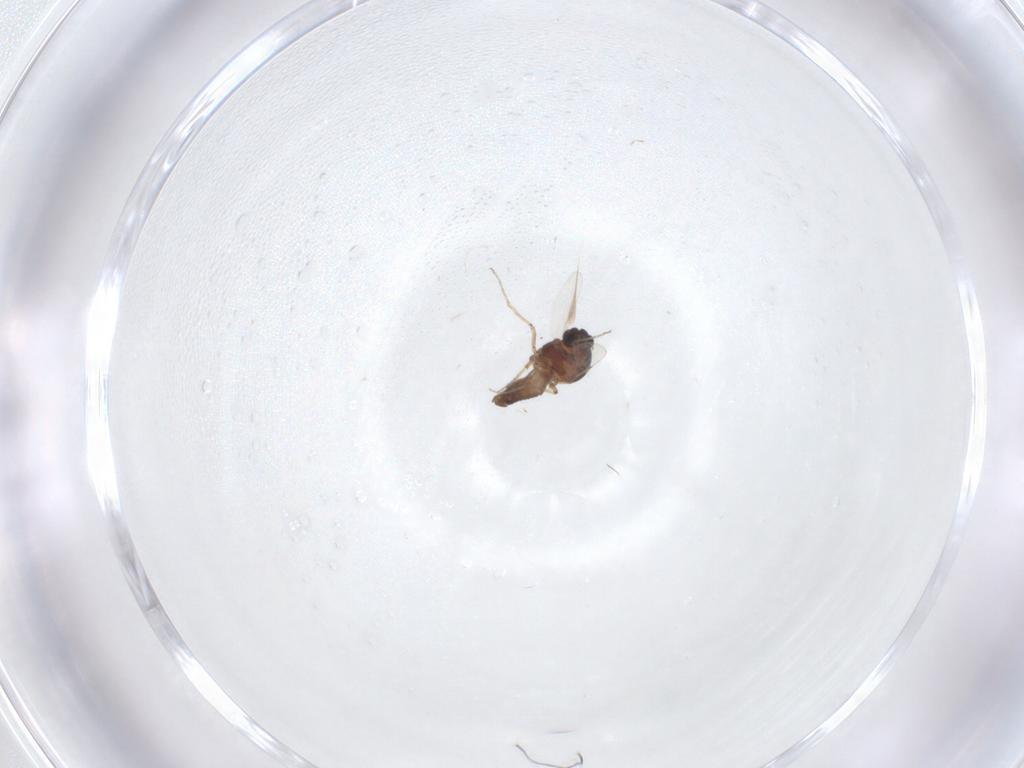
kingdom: Animalia
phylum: Arthropoda
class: Insecta
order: Diptera
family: Ceratopogonidae
